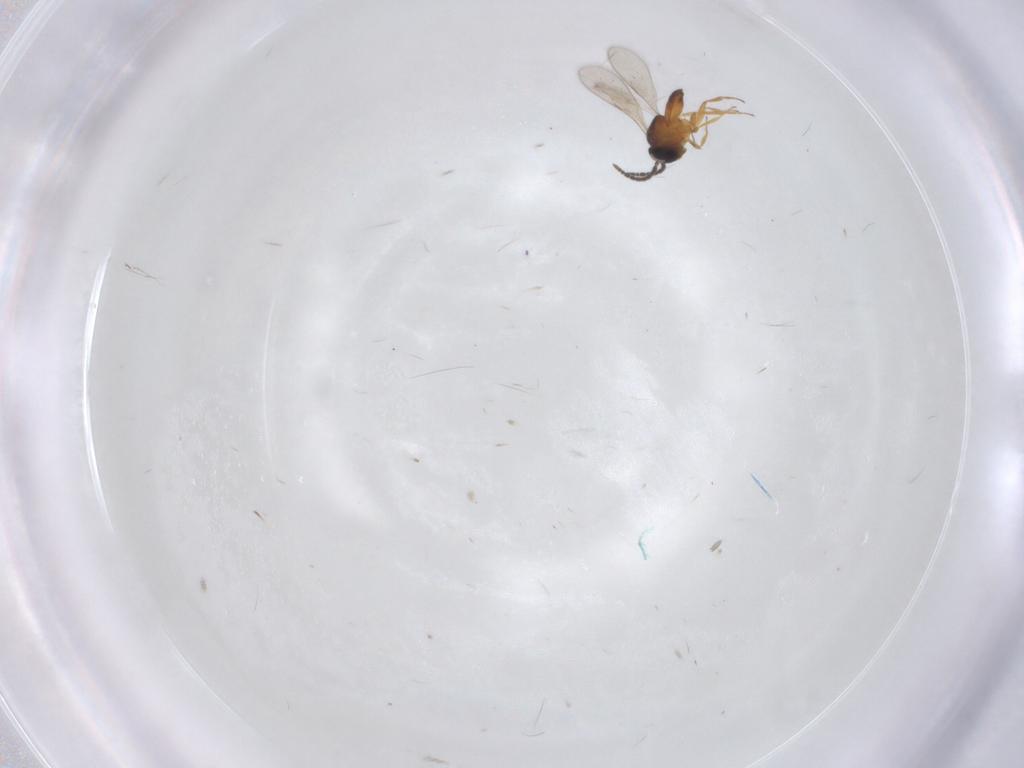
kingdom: Animalia
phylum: Arthropoda
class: Insecta
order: Hymenoptera
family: Scelionidae
